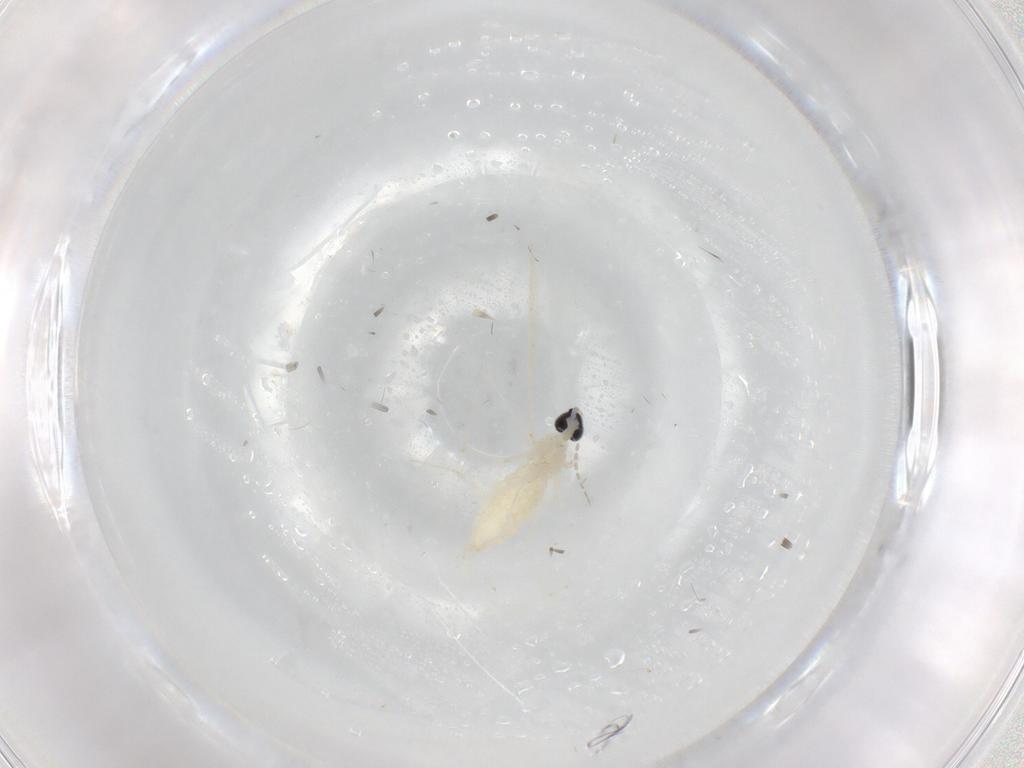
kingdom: Animalia
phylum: Arthropoda
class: Insecta
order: Diptera
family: Cecidomyiidae
